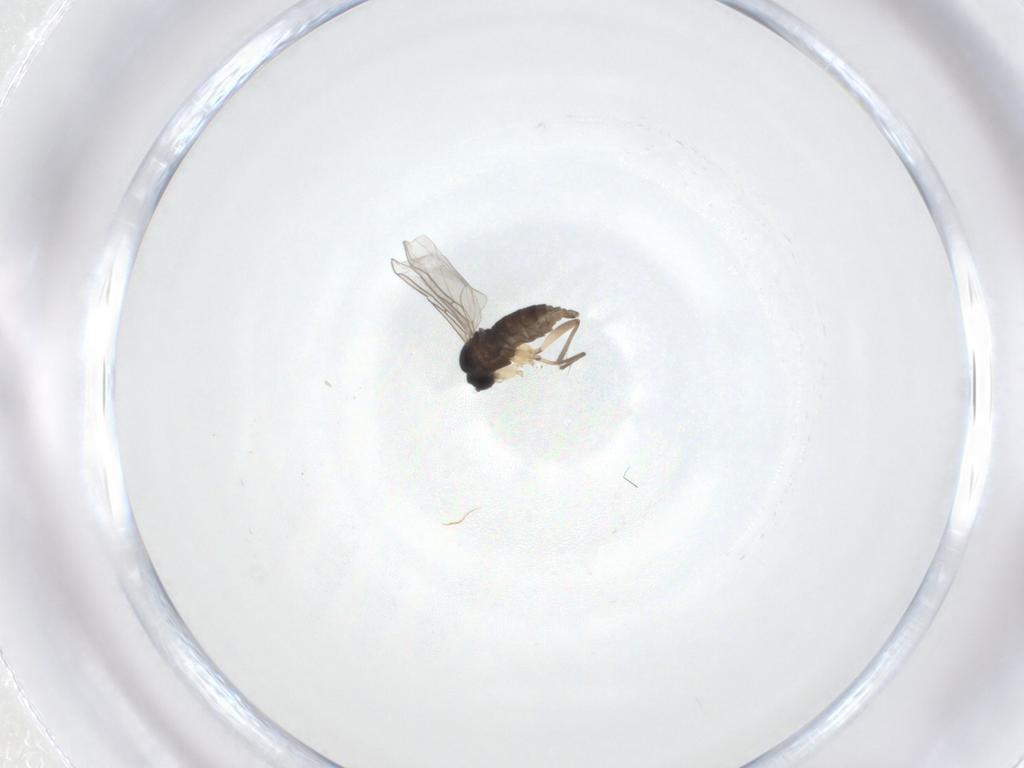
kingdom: Animalia
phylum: Arthropoda
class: Insecta
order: Diptera
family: Sciaridae
